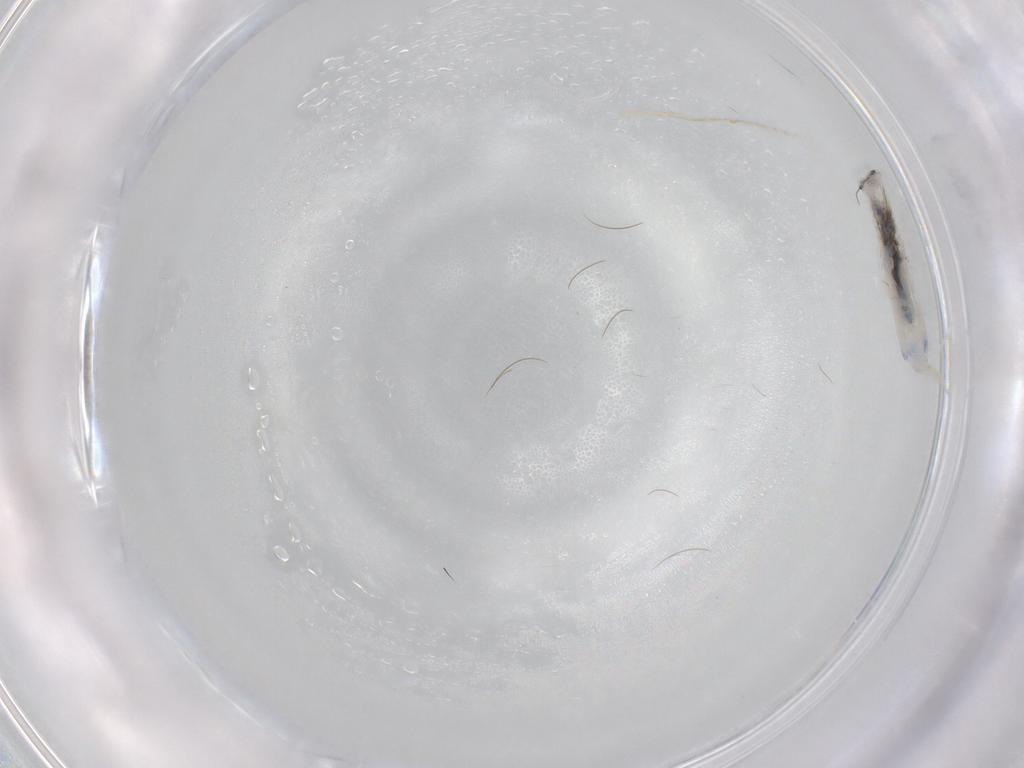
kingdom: Animalia
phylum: Arthropoda
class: Collembola
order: Entomobryomorpha
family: Entomobryidae
